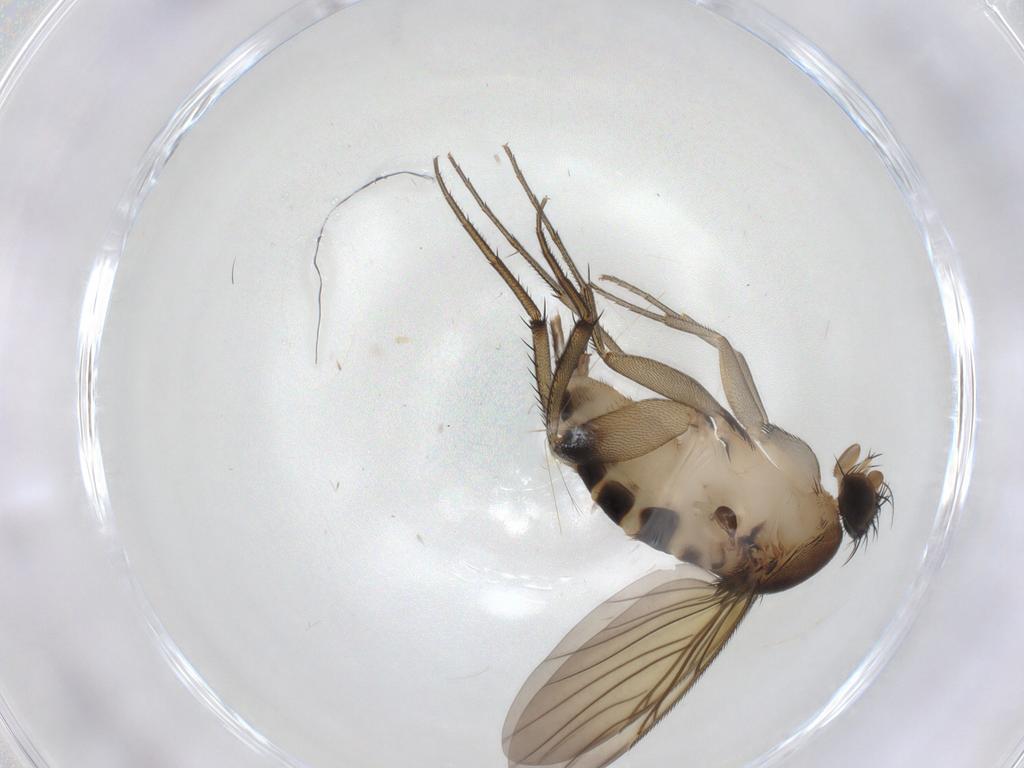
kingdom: Animalia
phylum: Arthropoda
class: Insecta
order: Diptera
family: Phoridae
